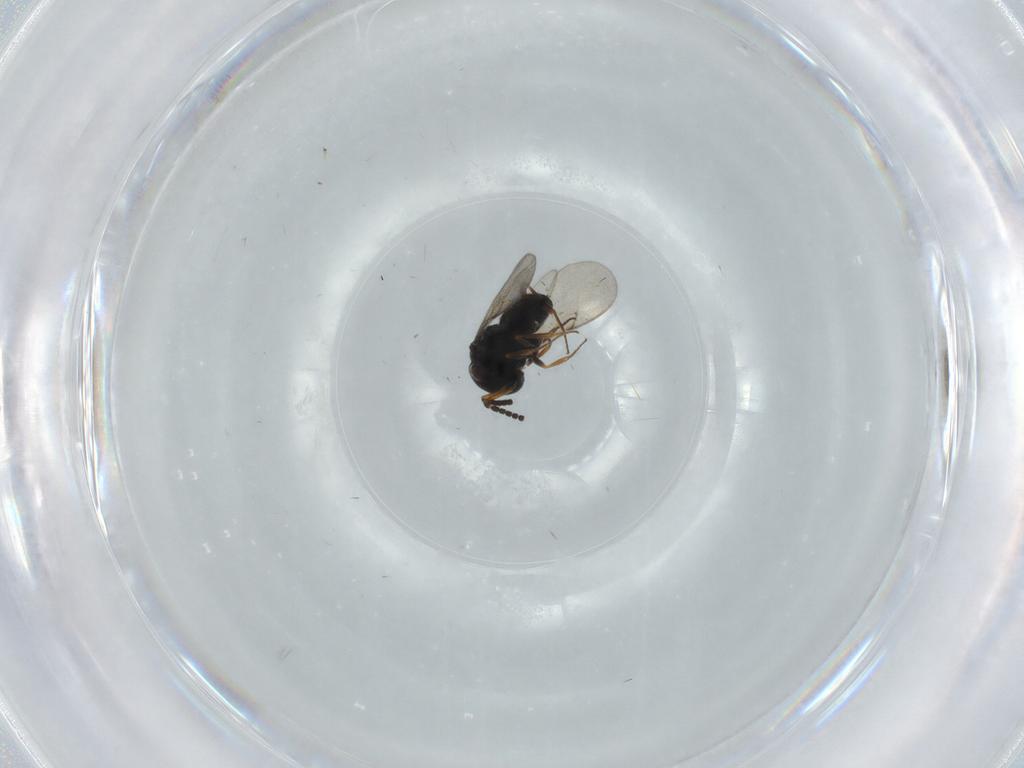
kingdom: Animalia
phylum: Arthropoda
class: Insecta
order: Hymenoptera
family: Scelionidae
